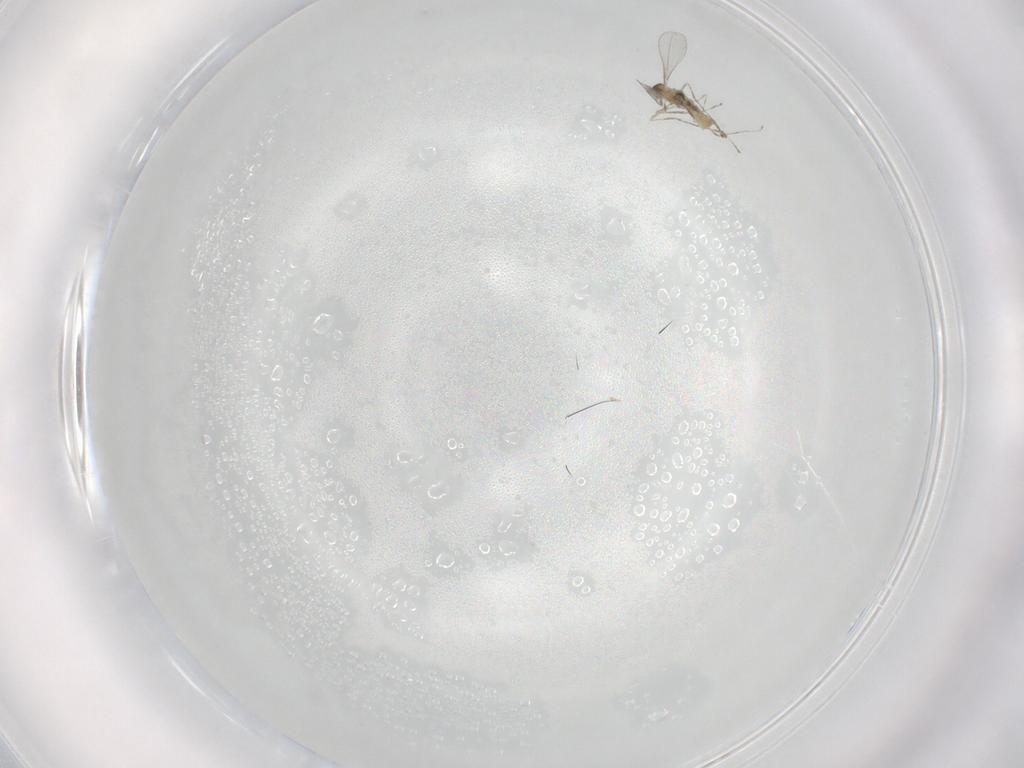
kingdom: Animalia
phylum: Arthropoda
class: Insecta
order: Diptera
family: Cecidomyiidae
